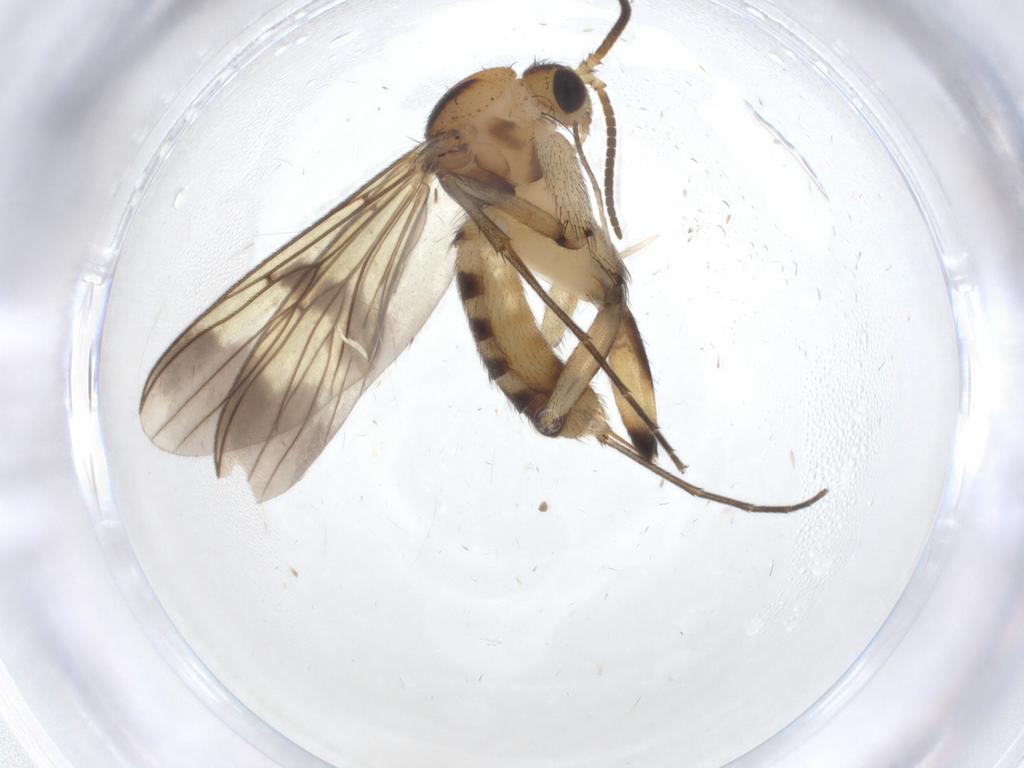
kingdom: Animalia
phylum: Arthropoda
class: Insecta
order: Diptera
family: Mycetophilidae
